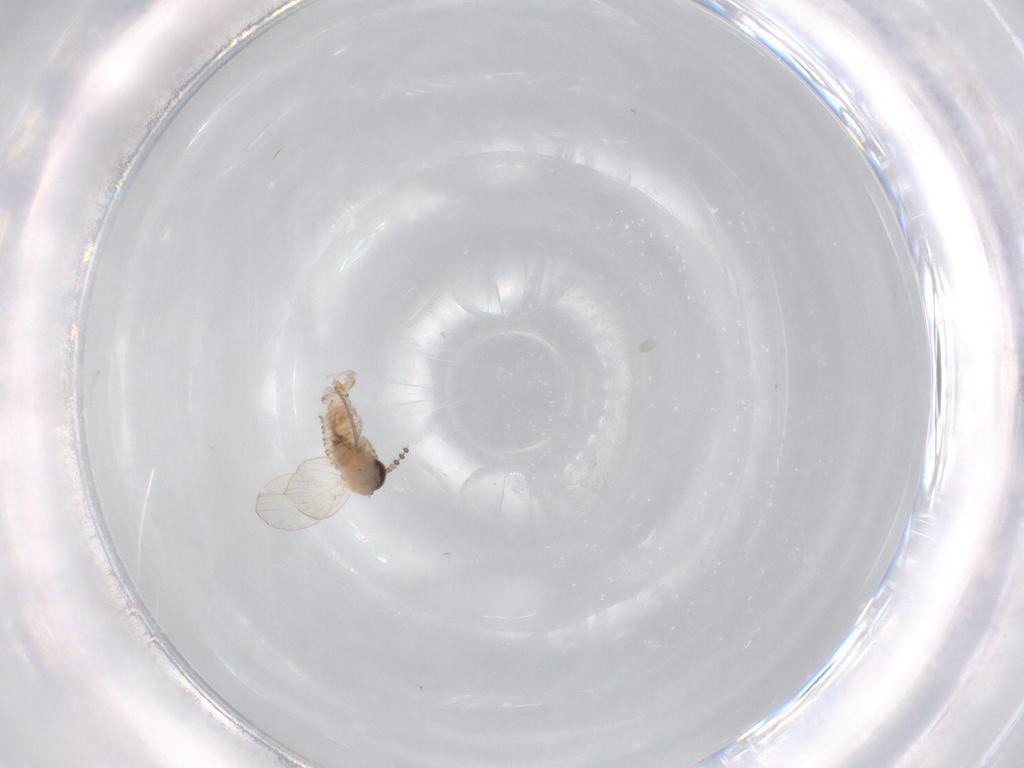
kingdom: Animalia
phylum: Arthropoda
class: Insecta
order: Diptera
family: Psychodidae
